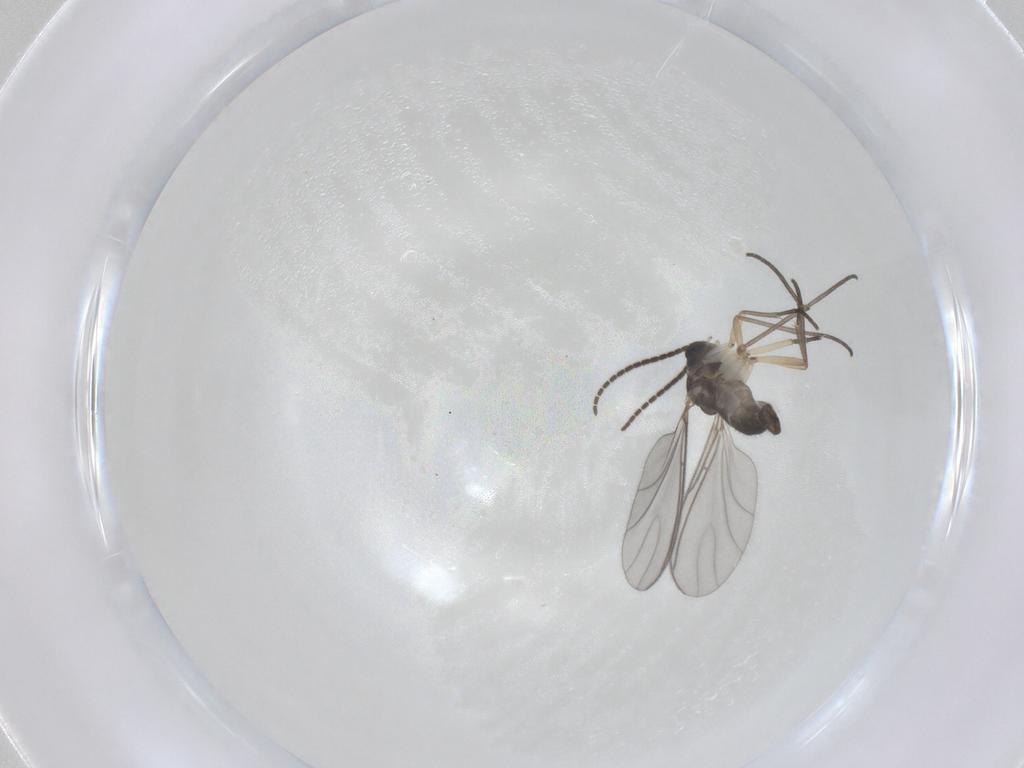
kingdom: Animalia
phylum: Arthropoda
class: Insecta
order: Diptera
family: Sciaridae
